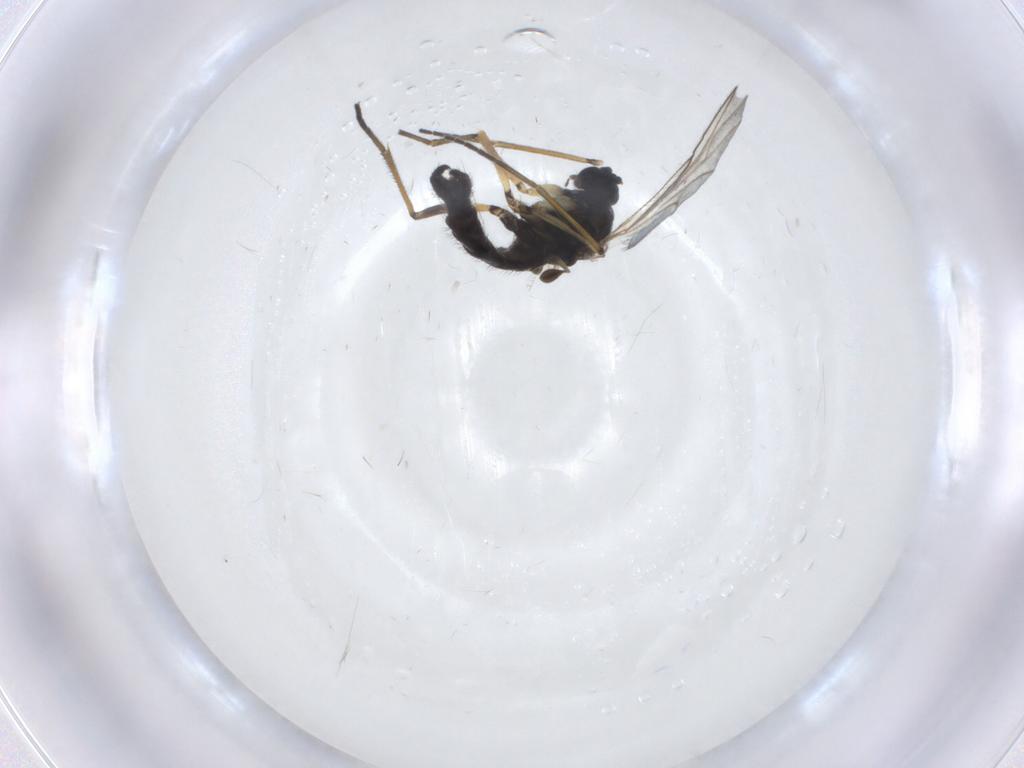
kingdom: Animalia
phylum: Arthropoda
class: Insecta
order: Diptera
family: Sciaridae
